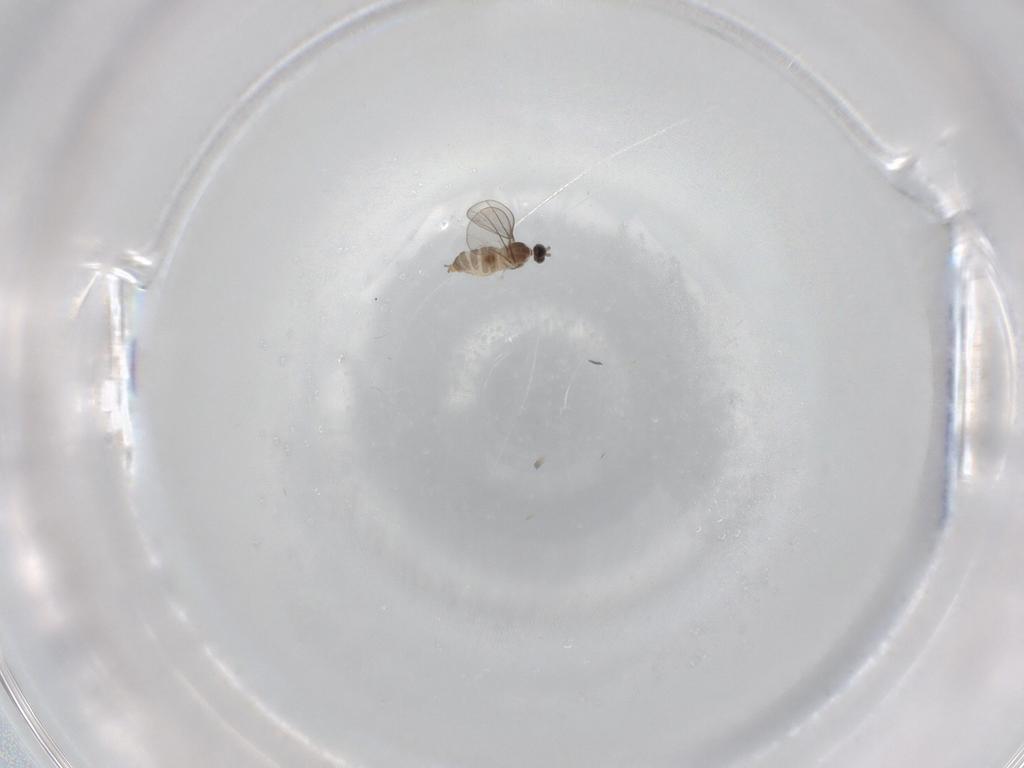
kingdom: Animalia
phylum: Arthropoda
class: Insecta
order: Diptera
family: Cecidomyiidae
